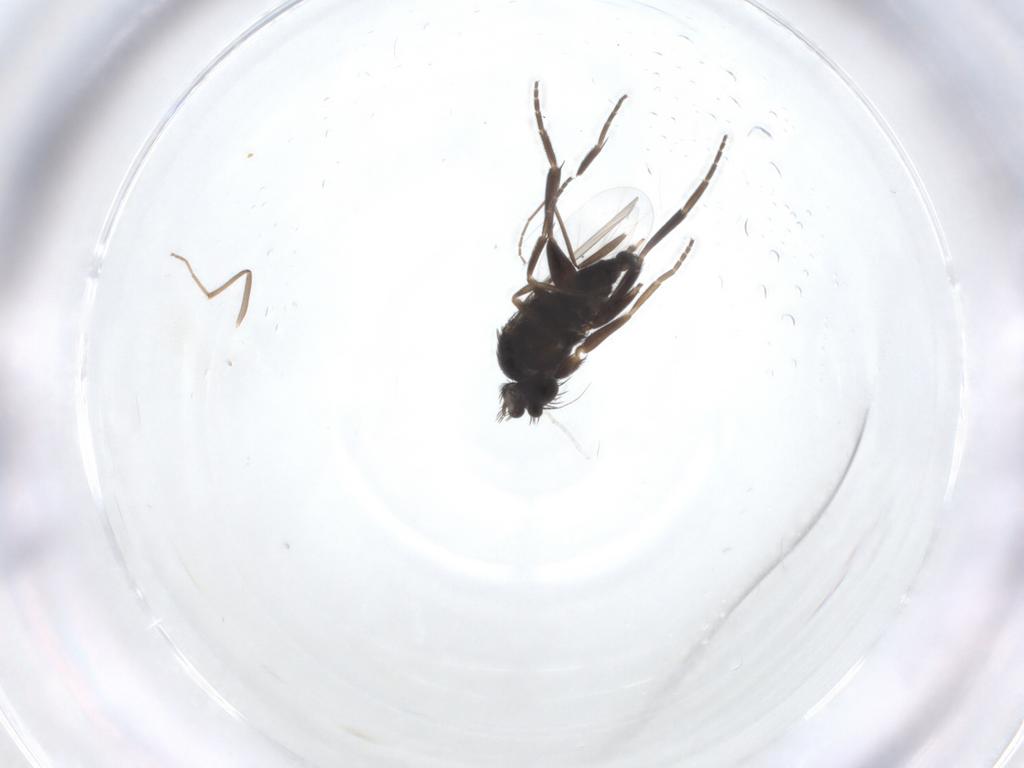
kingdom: Animalia
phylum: Arthropoda
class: Insecta
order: Diptera
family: Phoridae
